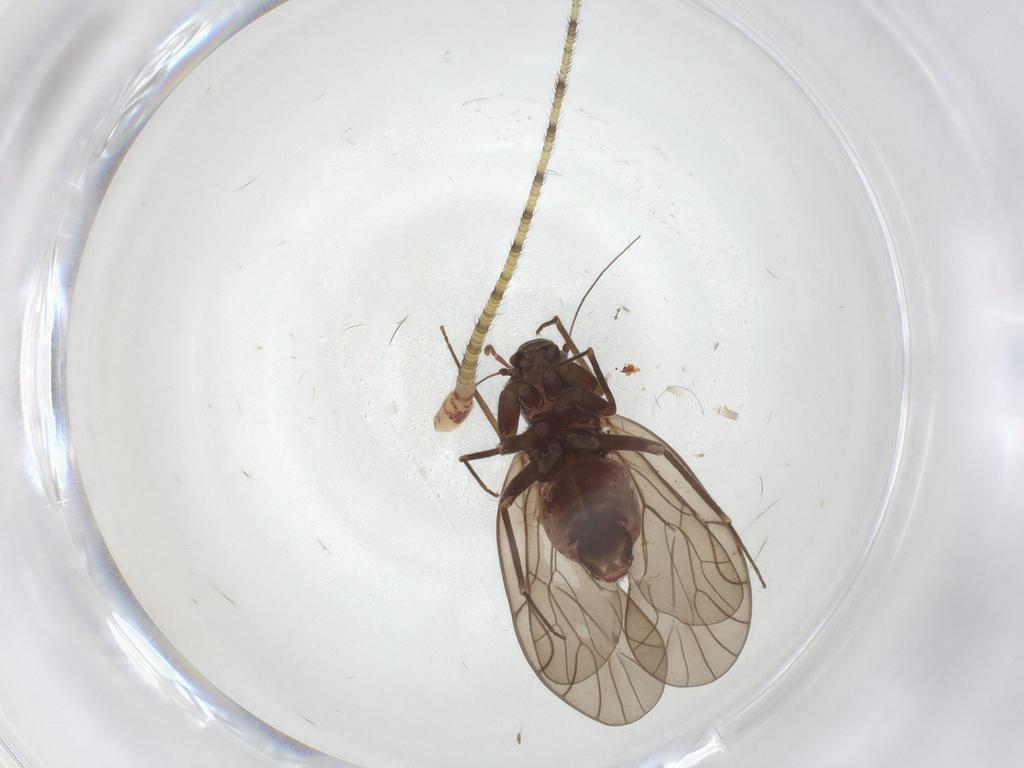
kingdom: Animalia
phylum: Arthropoda
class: Insecta
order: Psocodea
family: Philotarsidae
